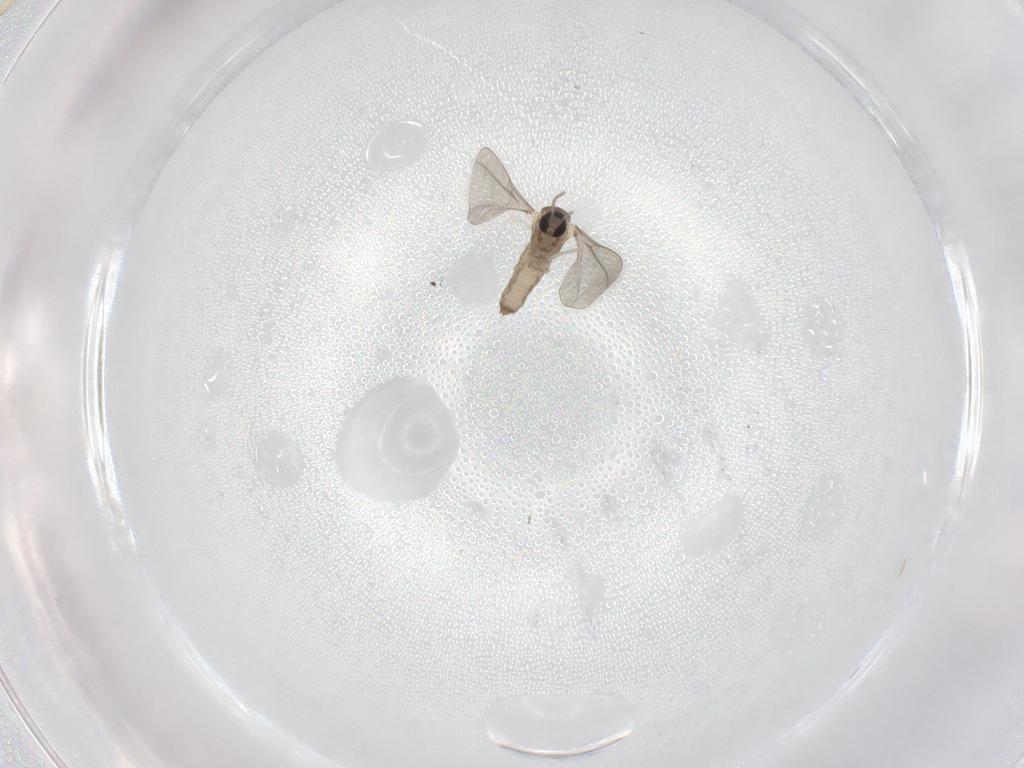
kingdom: Animalia
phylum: Arthropoda
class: Insecta
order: Diptera
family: Cecidomyiidae
